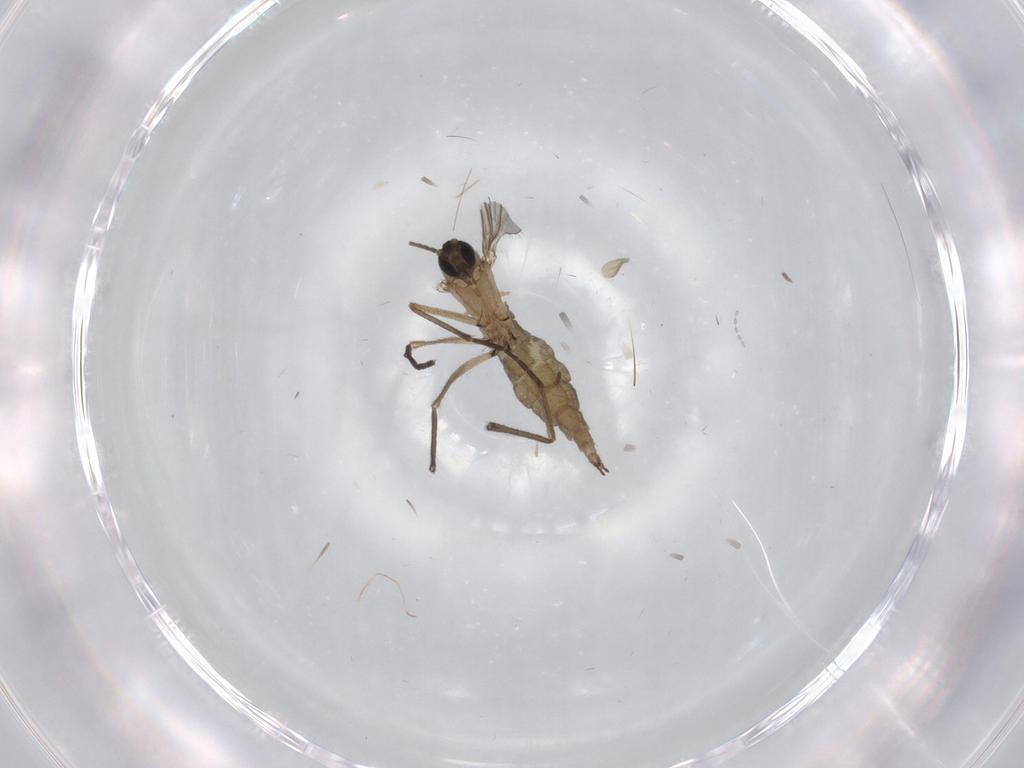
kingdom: Animalia
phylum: Arthropoda
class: Insecta
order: Diptera
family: Sciaridae
